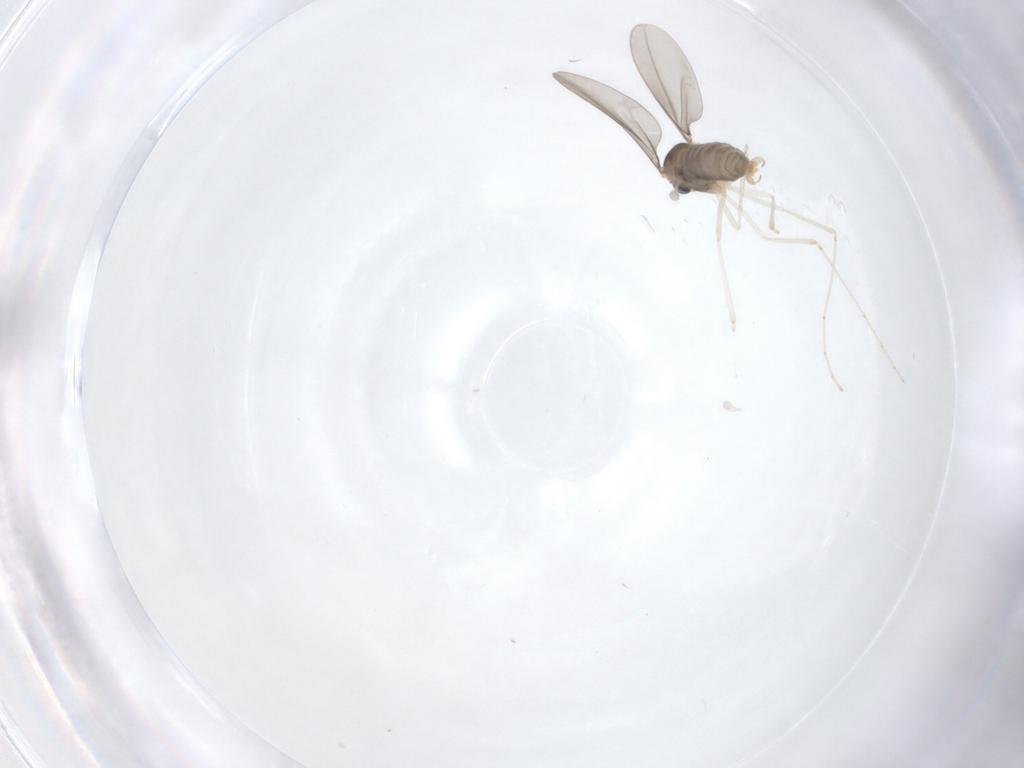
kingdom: Animalia
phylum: Arthropoda
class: Insecta
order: Diptera
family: Cecidomyiidae
